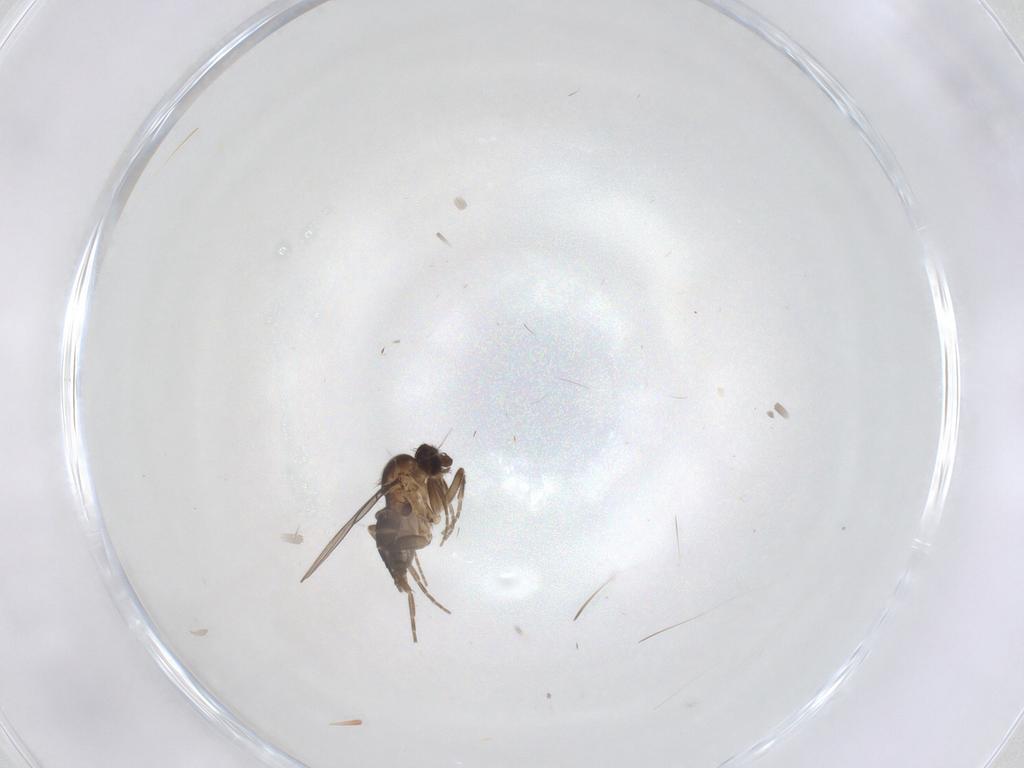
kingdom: Animalia
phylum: Arthropoda
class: Insecta
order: Diptera
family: Phoridae
